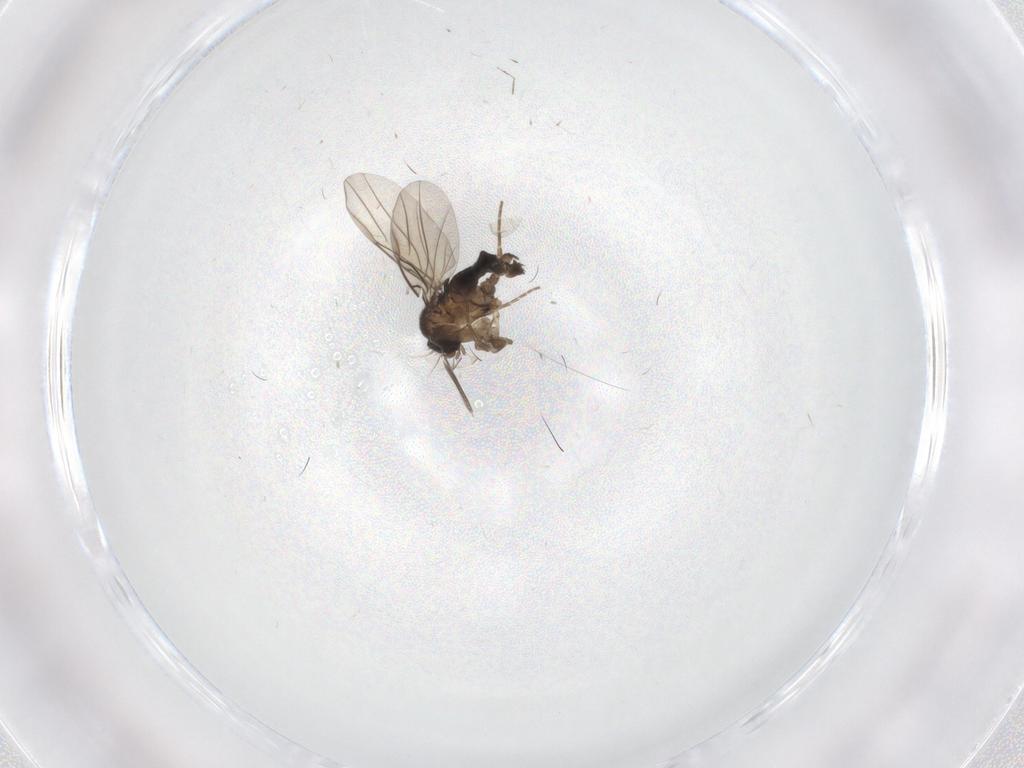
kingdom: Animalia
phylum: Arthropoda
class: Insecta
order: Diptera
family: Phoridae
